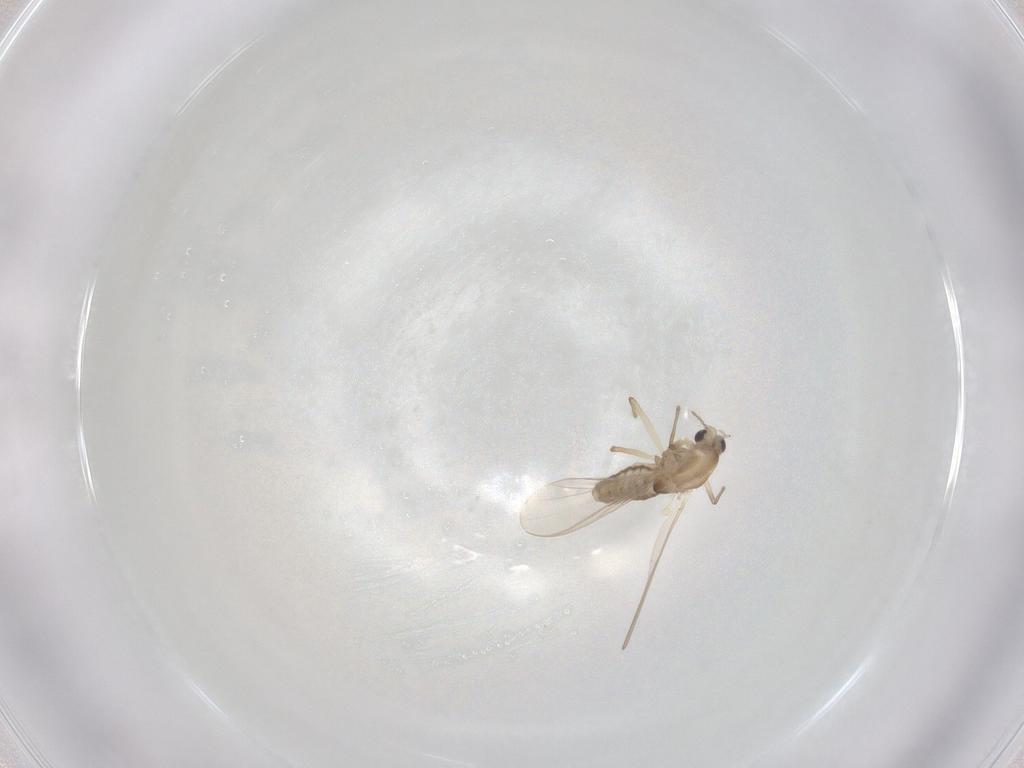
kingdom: Animalia
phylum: Arthropoda
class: Insecta
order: Diptera
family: Chironomidae
